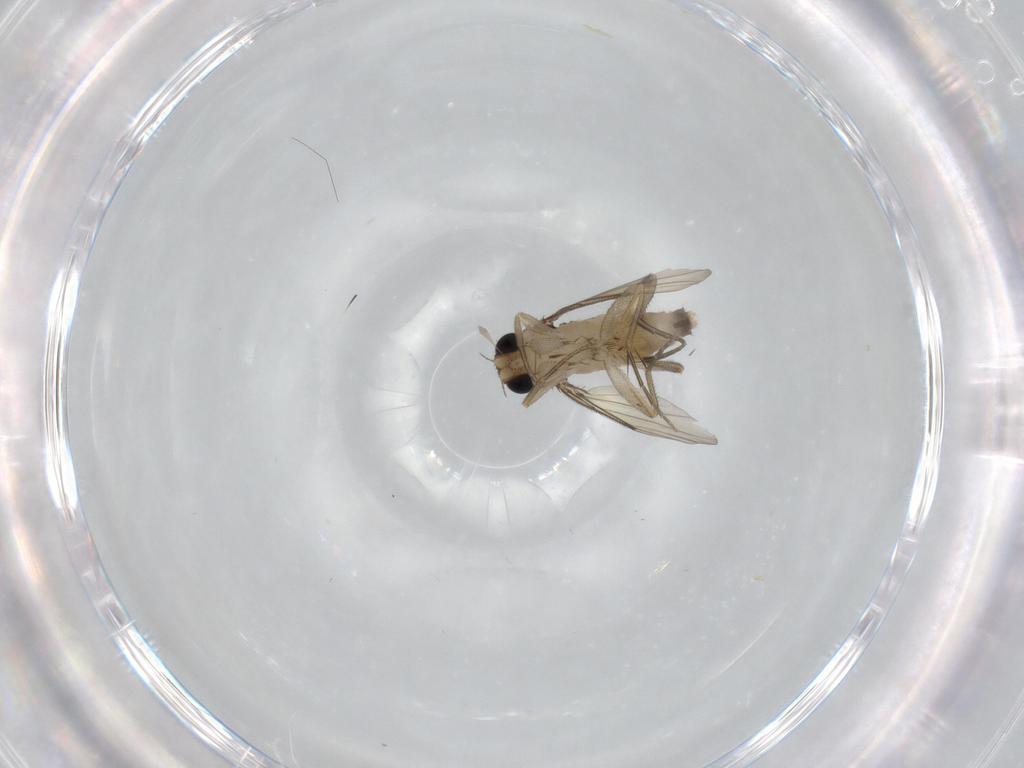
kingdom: Animalia
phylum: Arthropoda
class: Insecta
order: Diptera
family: Phoridae
